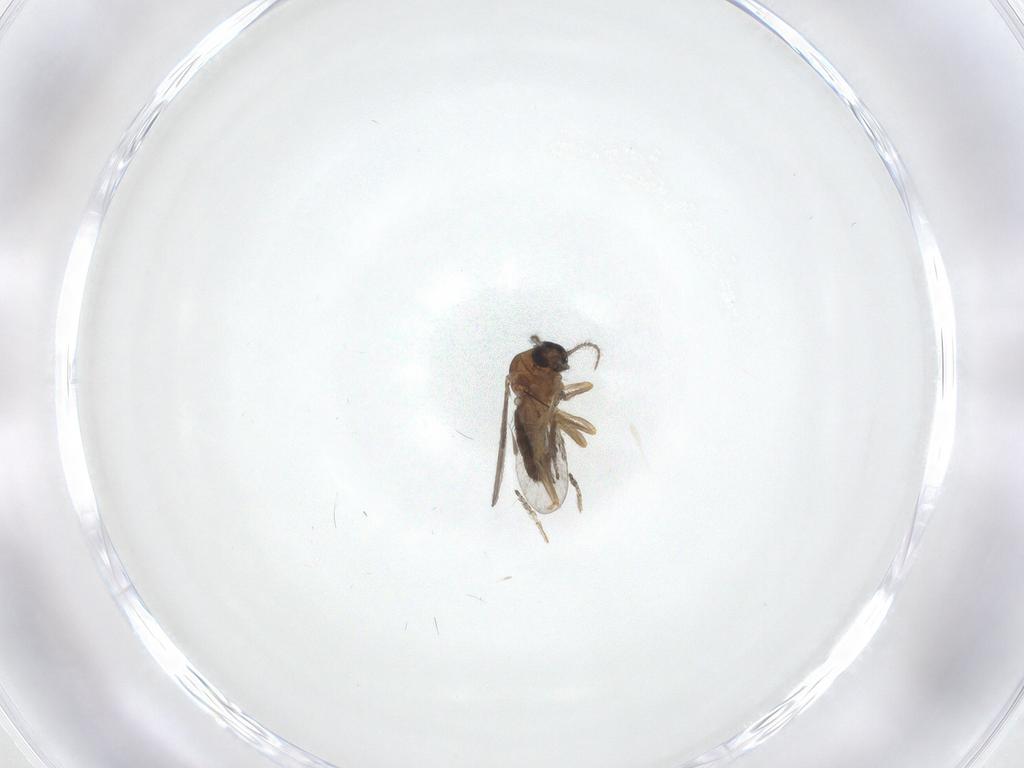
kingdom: Animalia
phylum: Arthropoda
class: Insecta
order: Diptera
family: Ceratopogonidae
